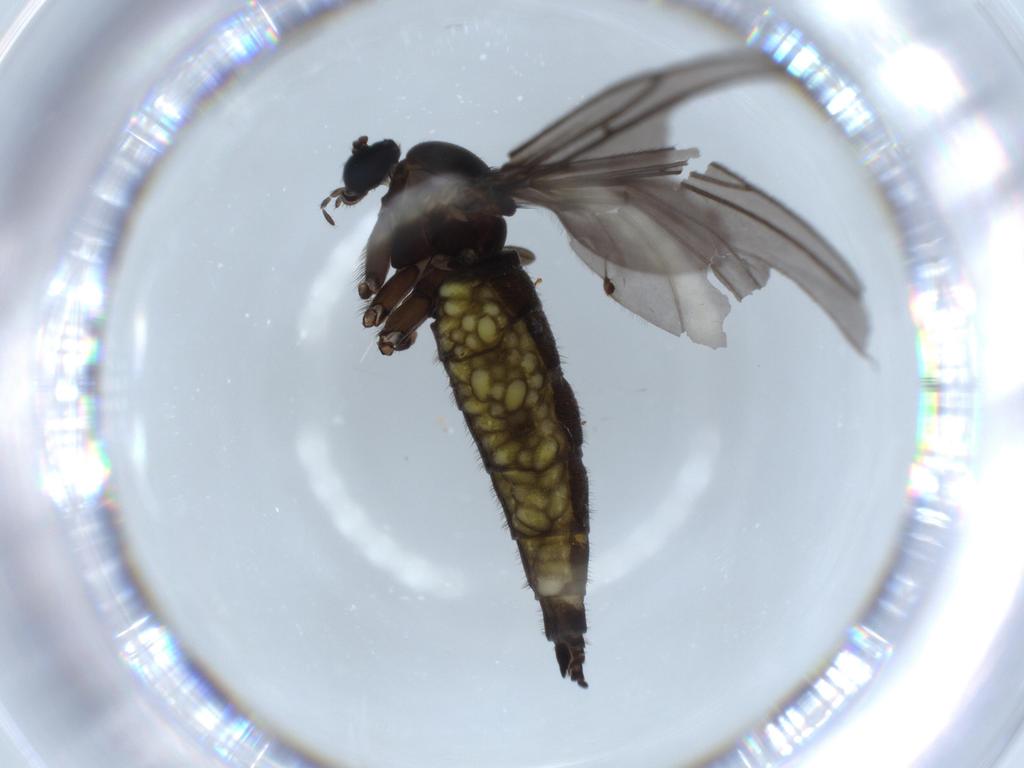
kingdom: Animalia
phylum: Arthropoda
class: Insecta
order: Diptera
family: Sciaridae
